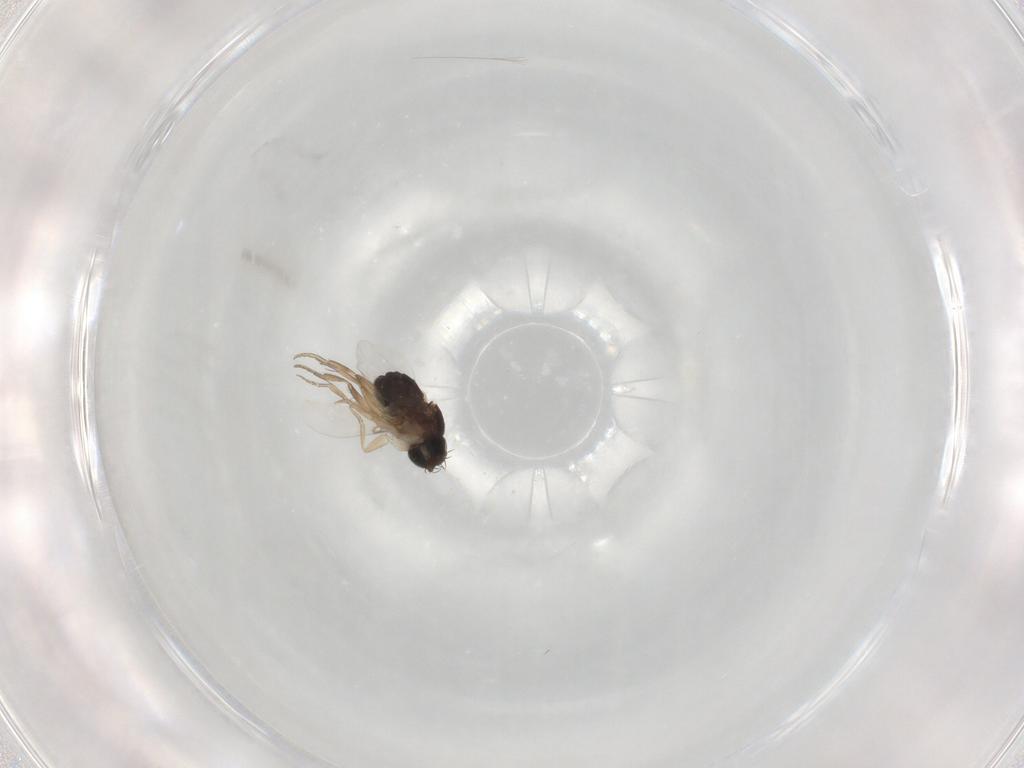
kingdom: Animalia
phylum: Arthropoda
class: Insecta
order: Diptera
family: Phoridae
